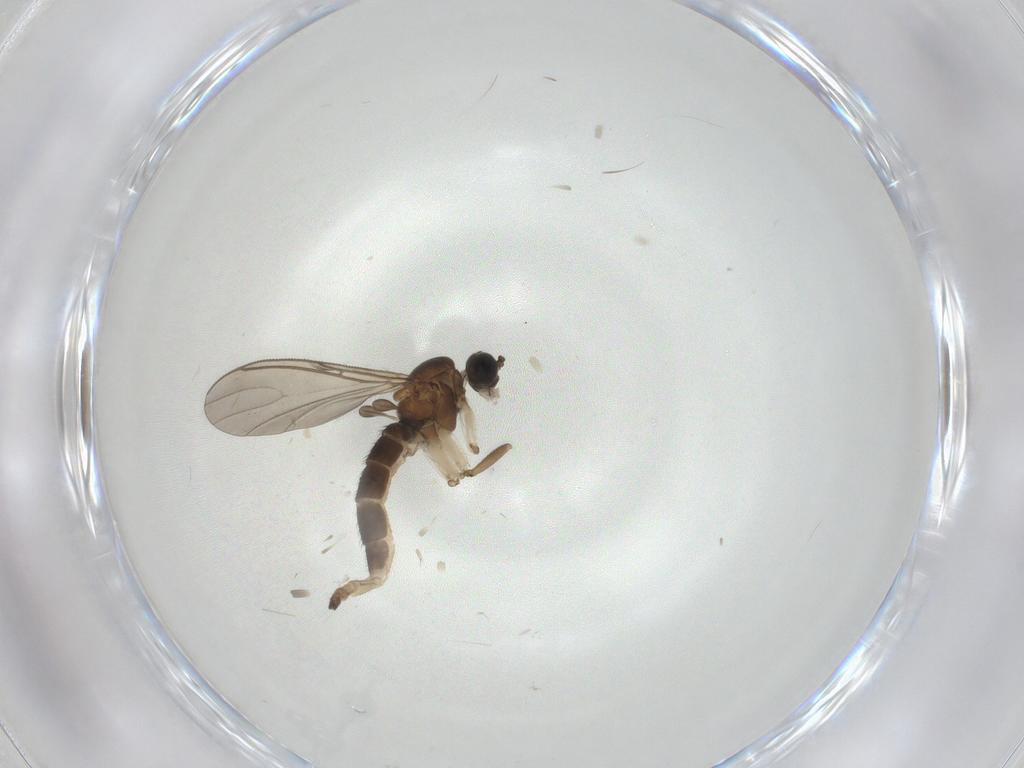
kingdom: Animalia
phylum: Arthropoda
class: Insecta
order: Diptera
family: Sciaridae
